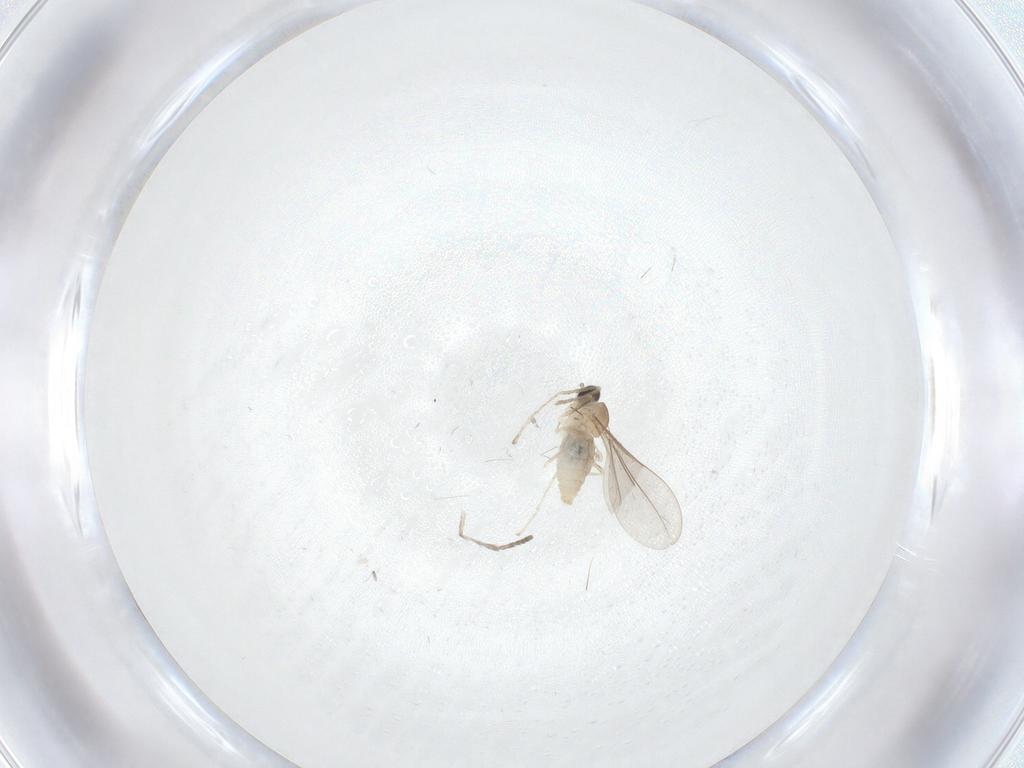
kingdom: Animalia
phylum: Arthropoda
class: Insecta
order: Diptera
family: Cecidomyiidae
